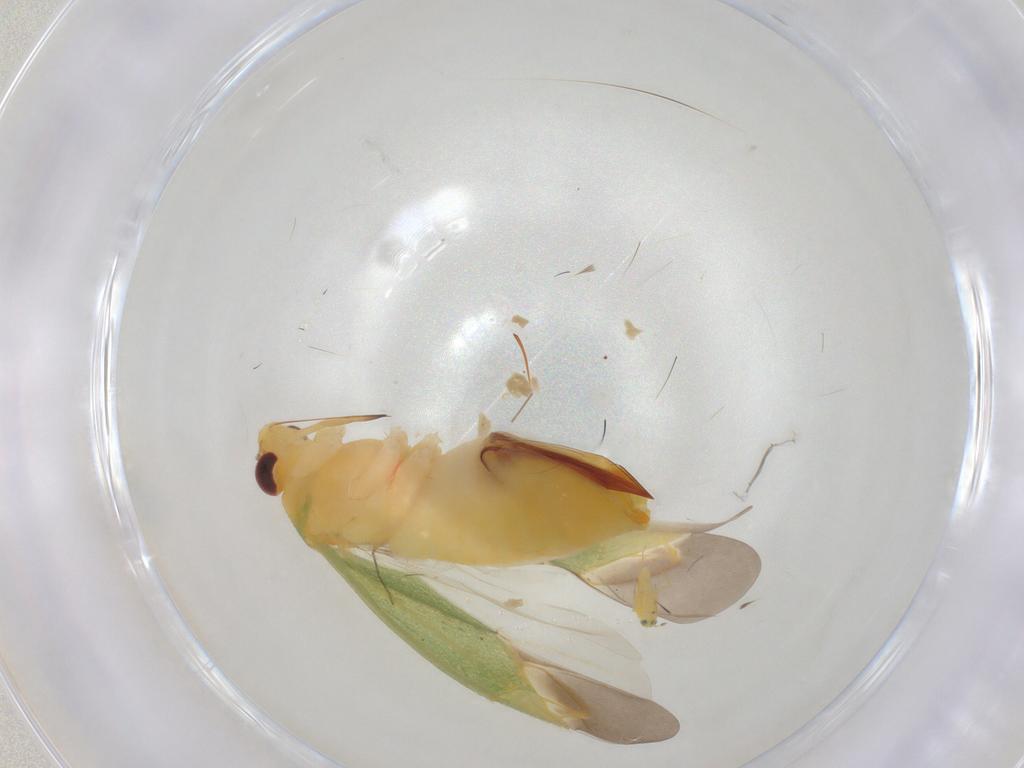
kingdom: Animalia
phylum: Arthropoda
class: Insecta
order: Hemiptera
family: Miridae
